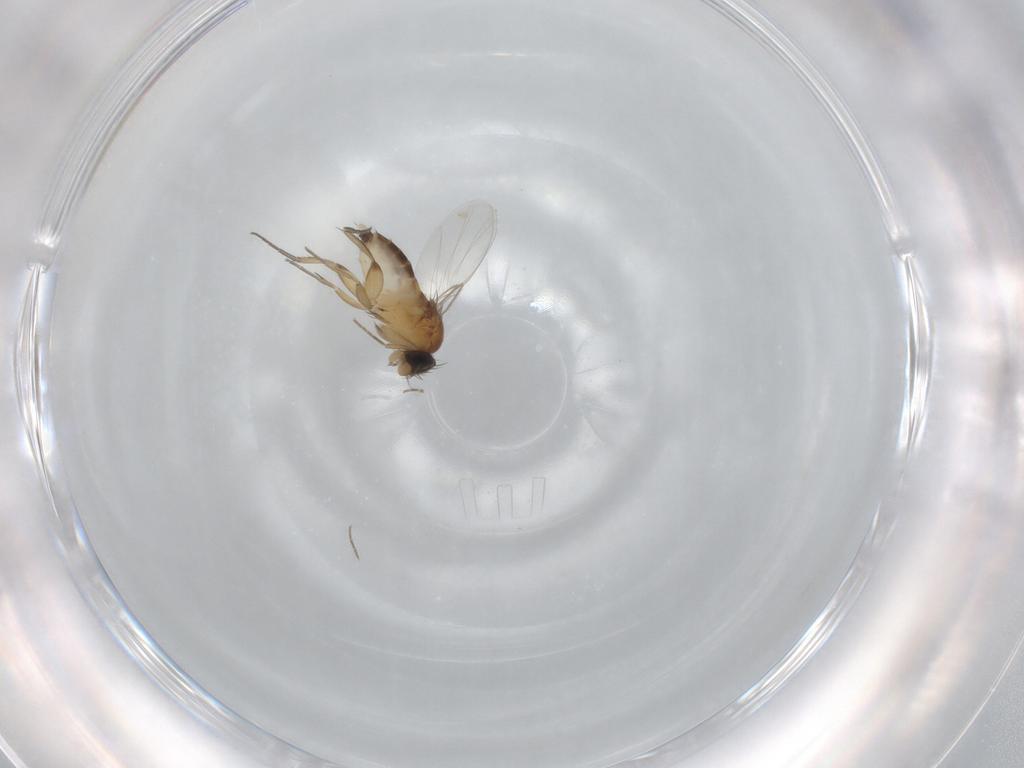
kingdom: Animalia
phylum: Arthropoda
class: Insecta
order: Diptera
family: Phoridae
